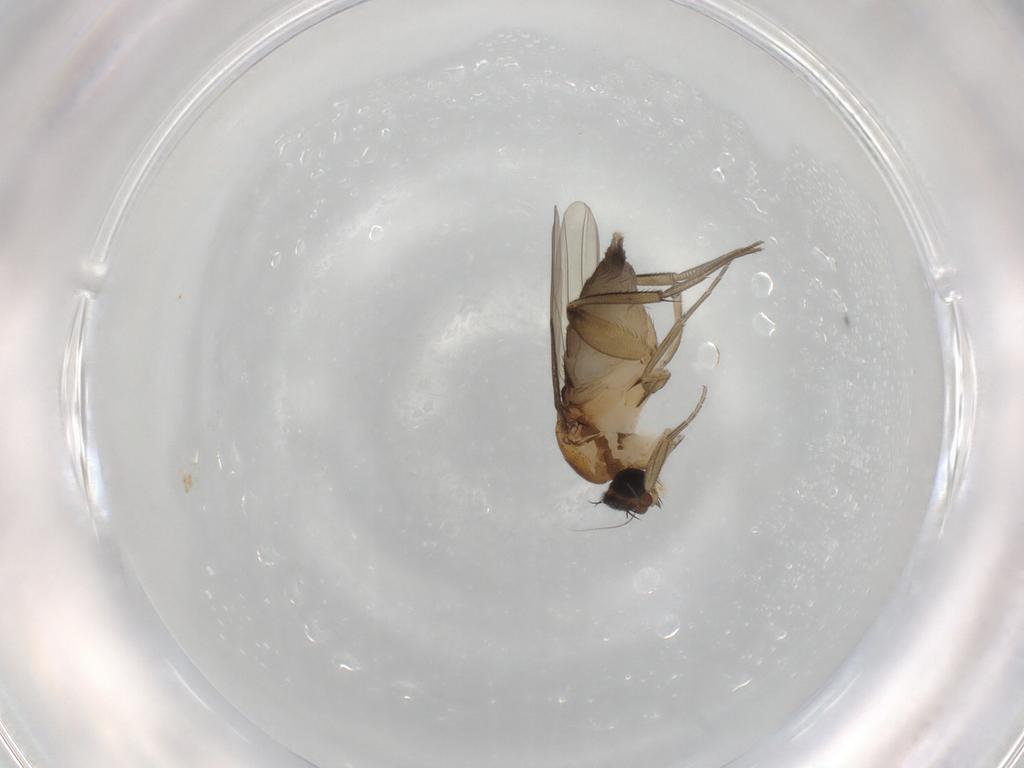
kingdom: Animalia
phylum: Arthropoda
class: Insecta
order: Diptera
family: Phoridae
